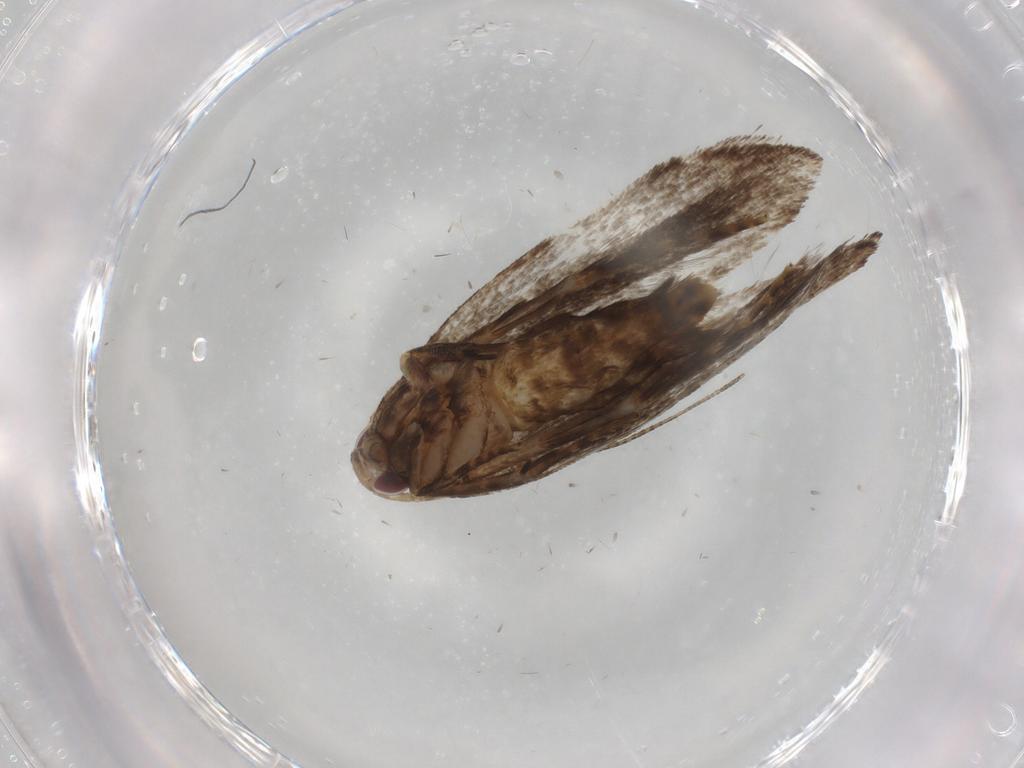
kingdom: Animalia
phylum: Arthropoda
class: Insecta
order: Lepidoptera
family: Gelechiidae
